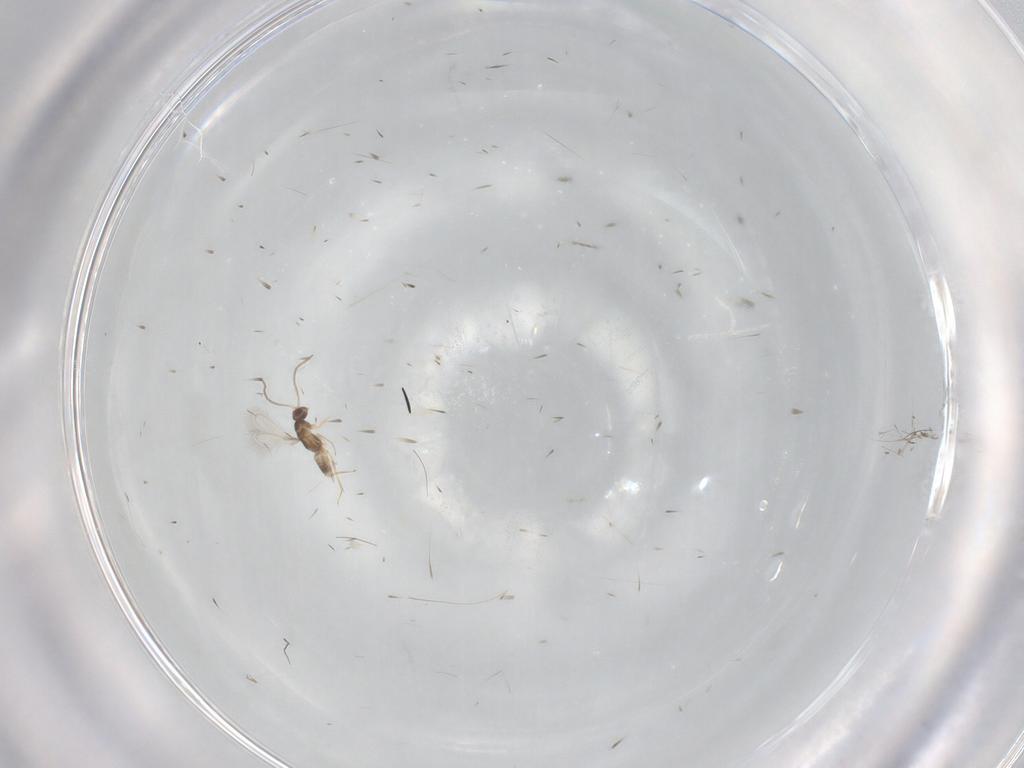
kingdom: Animalia
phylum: Arthropoda
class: Insecta
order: Hymenoptera
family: Mymaridae
